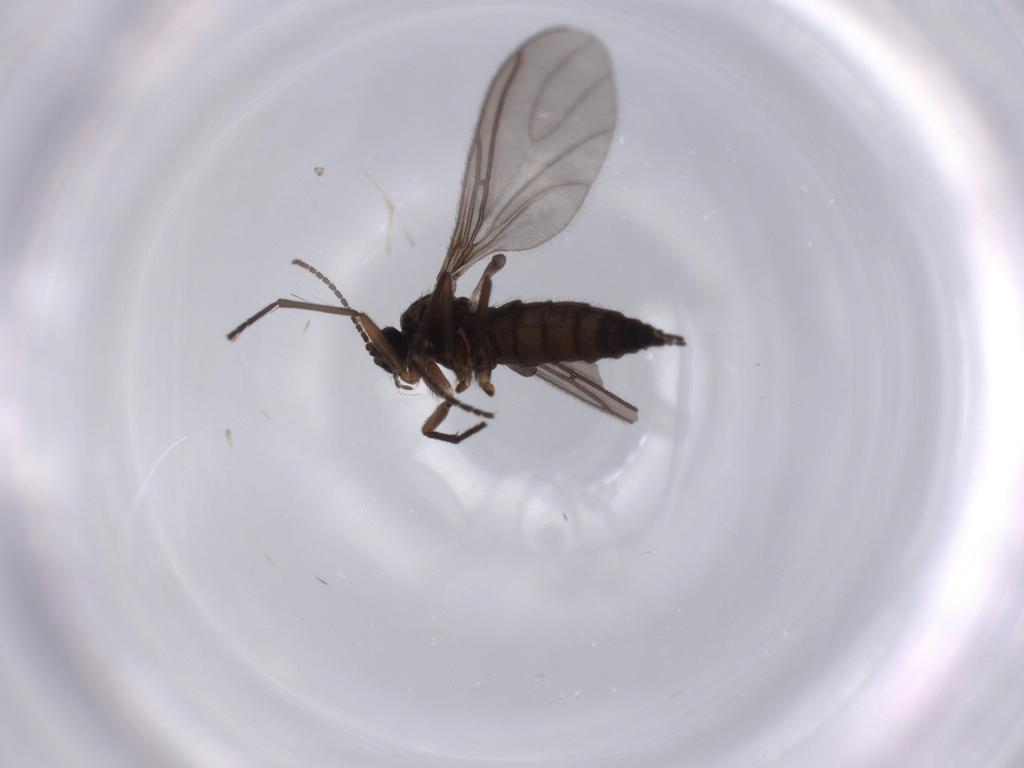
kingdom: Animalia
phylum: Arthropoda
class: Insecta
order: Diptera
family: Sciaridae
